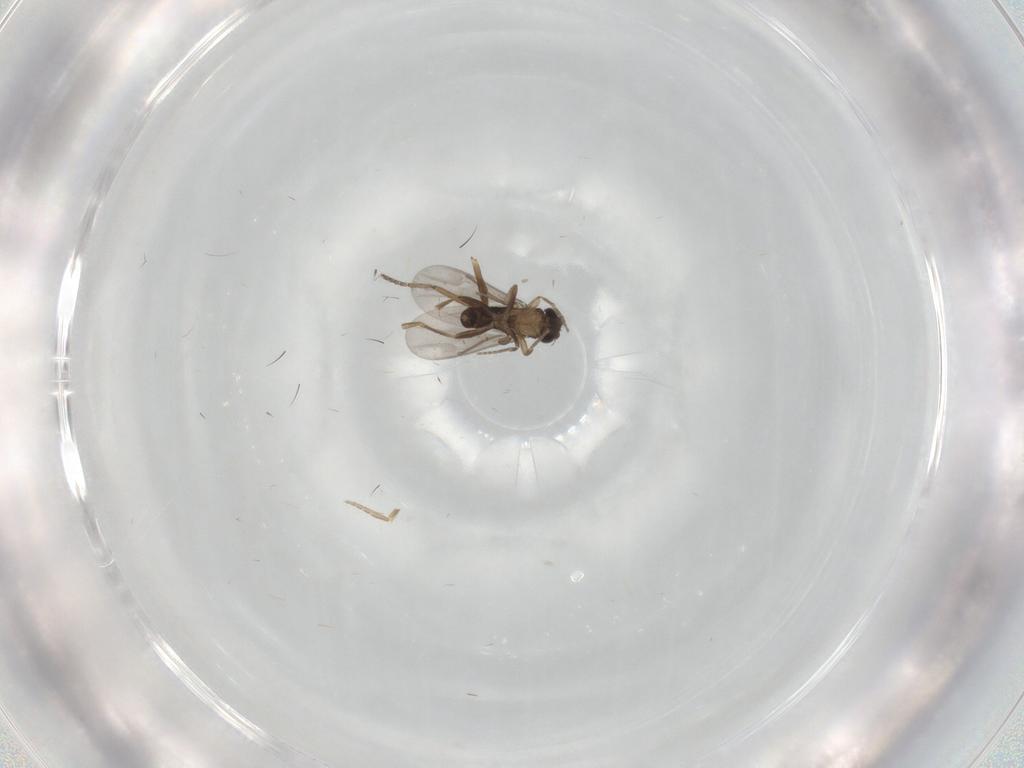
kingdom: Animalia
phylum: Arthropoda
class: Insecta
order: Diptera
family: Ceratopogonidae
